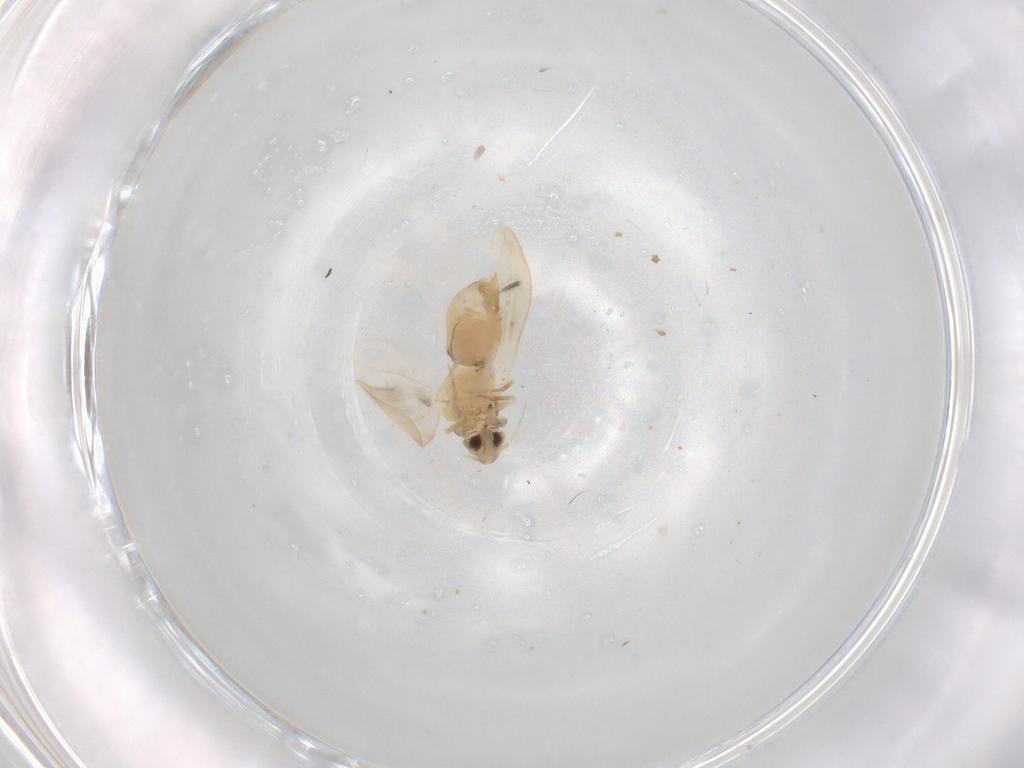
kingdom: Animalia
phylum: Arthropoda
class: Insecta
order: Hemiptera
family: Aleyrodidae
